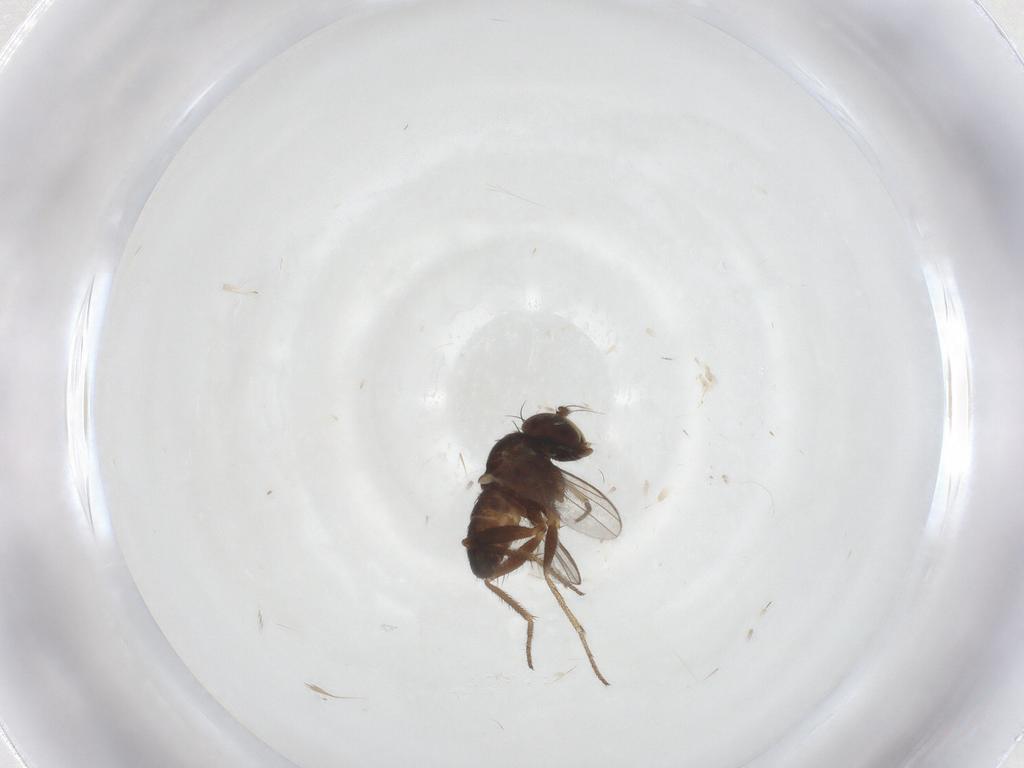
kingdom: Animalia
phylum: Arthropoda
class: Insecta
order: Diptera
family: Cecidomyiidae
